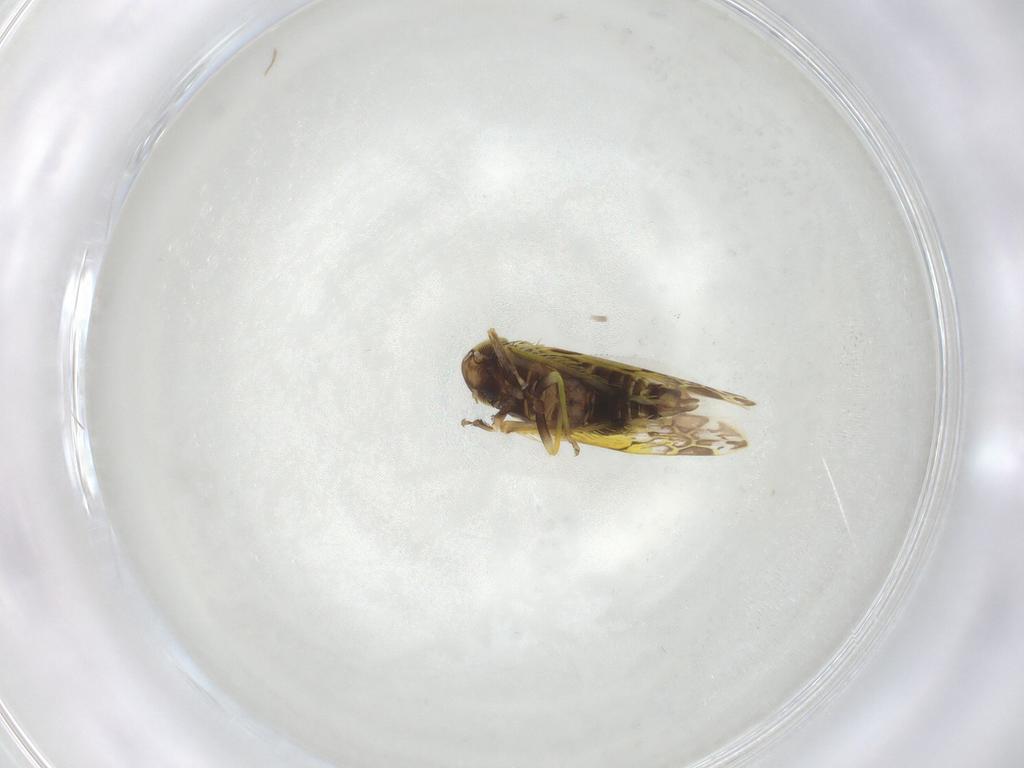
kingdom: Animalia
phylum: Arthropoda
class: Insecta
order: Hemiptera
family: Cicadellidae
